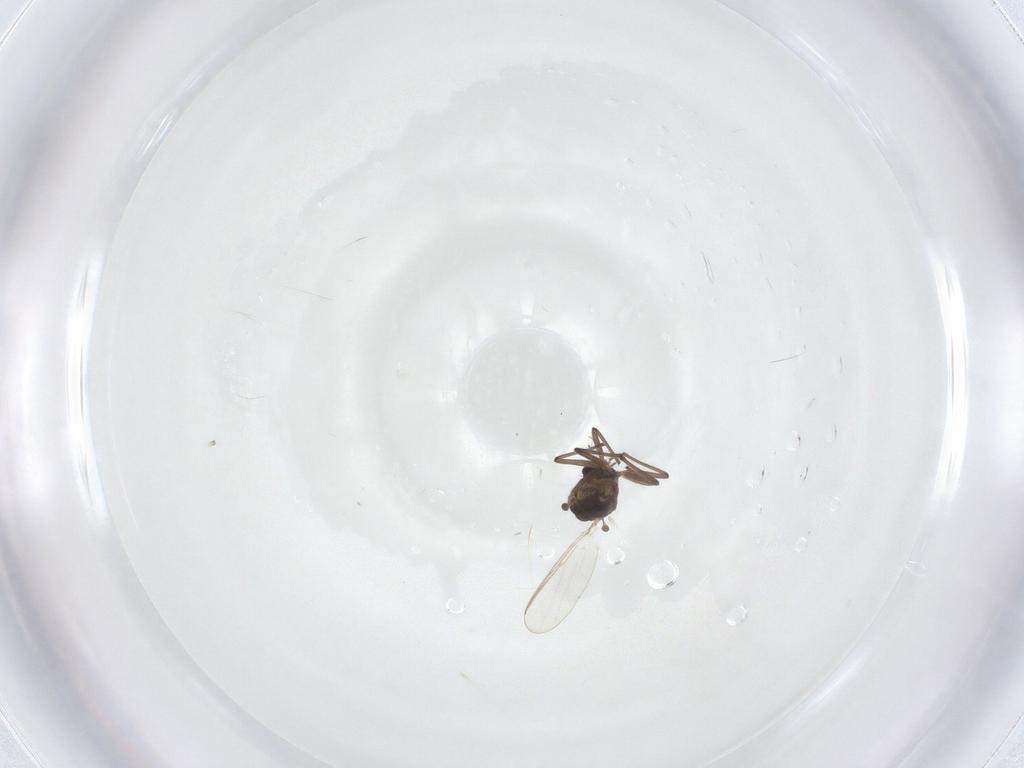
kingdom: Animalia
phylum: Arthropoda
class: Insecta
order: Diptera
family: Chironomidae
